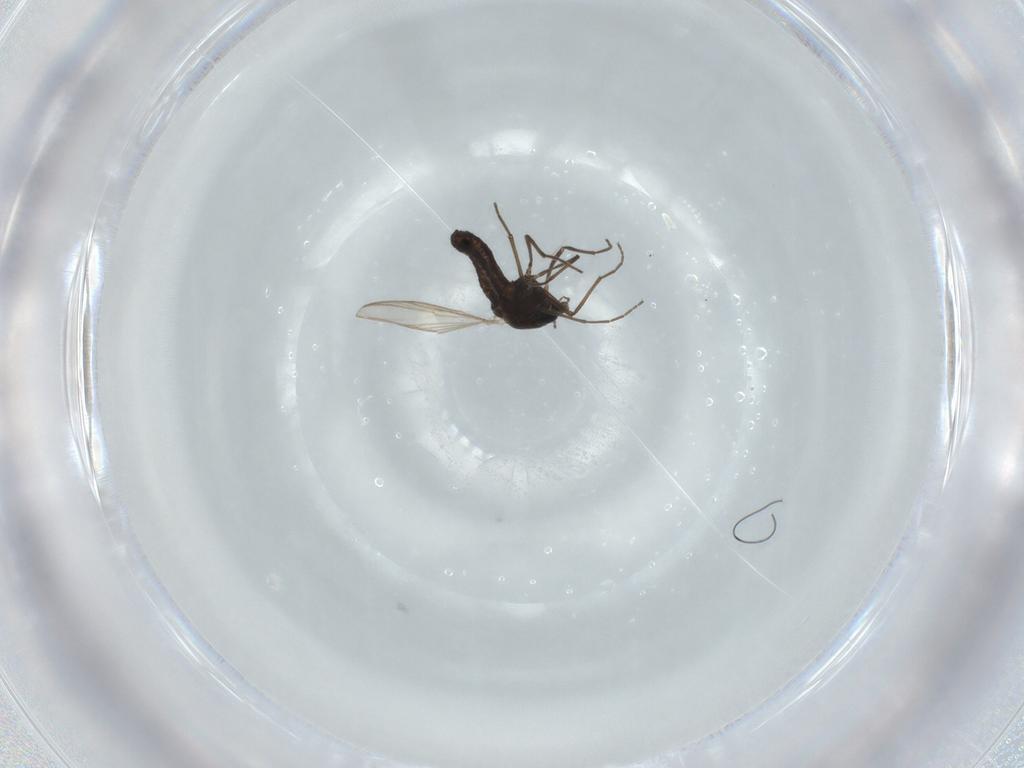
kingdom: Animalia
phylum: Arthropoda
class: Insecta
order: Diptera
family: Chironomidae
